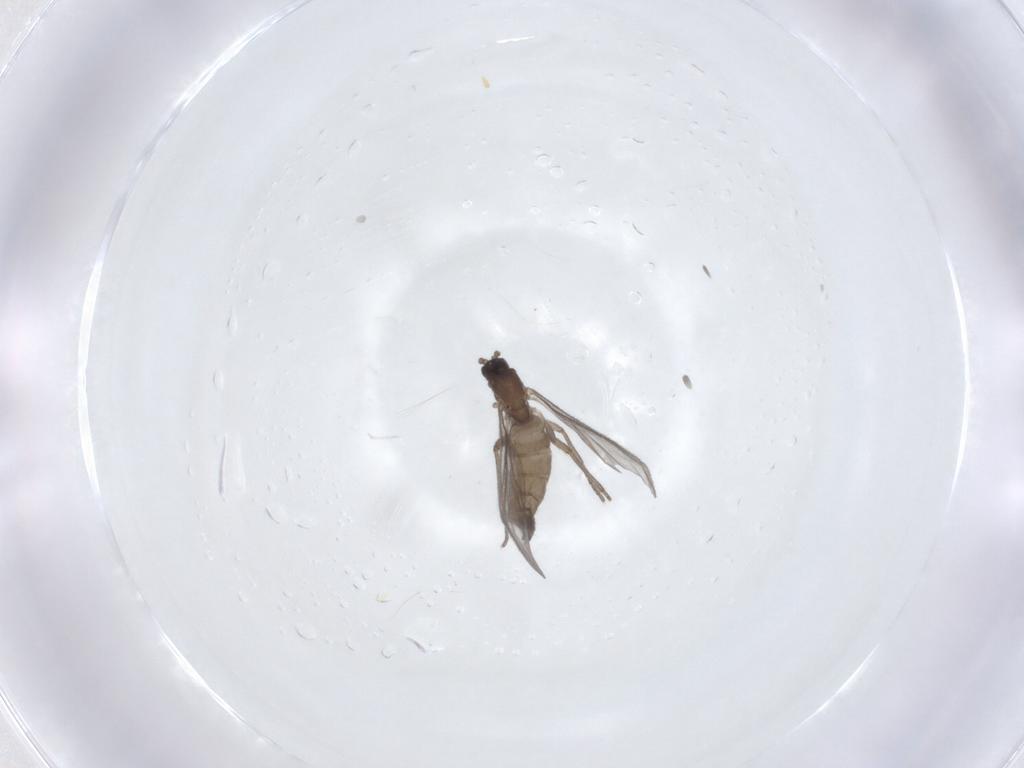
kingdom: Animalia
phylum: Arthropoda
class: Insecta
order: Diptera
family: Sciaridae
